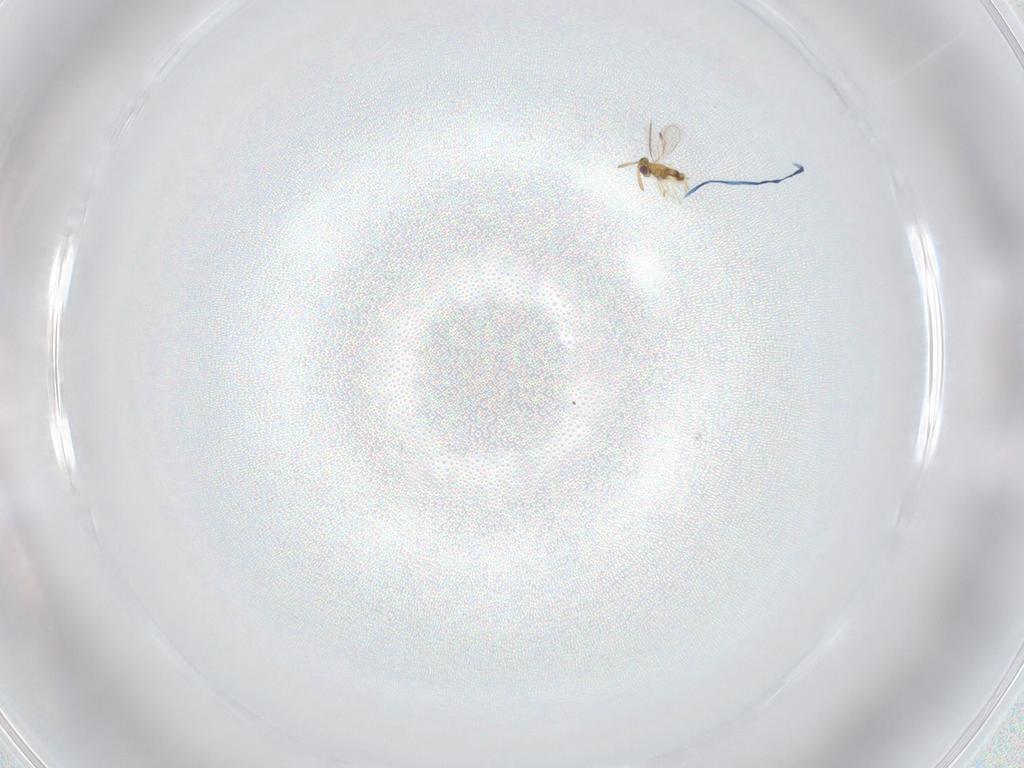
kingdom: Animalia
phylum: Arthropoda
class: Insecta
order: Hymenoptera
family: Aphelinidae
